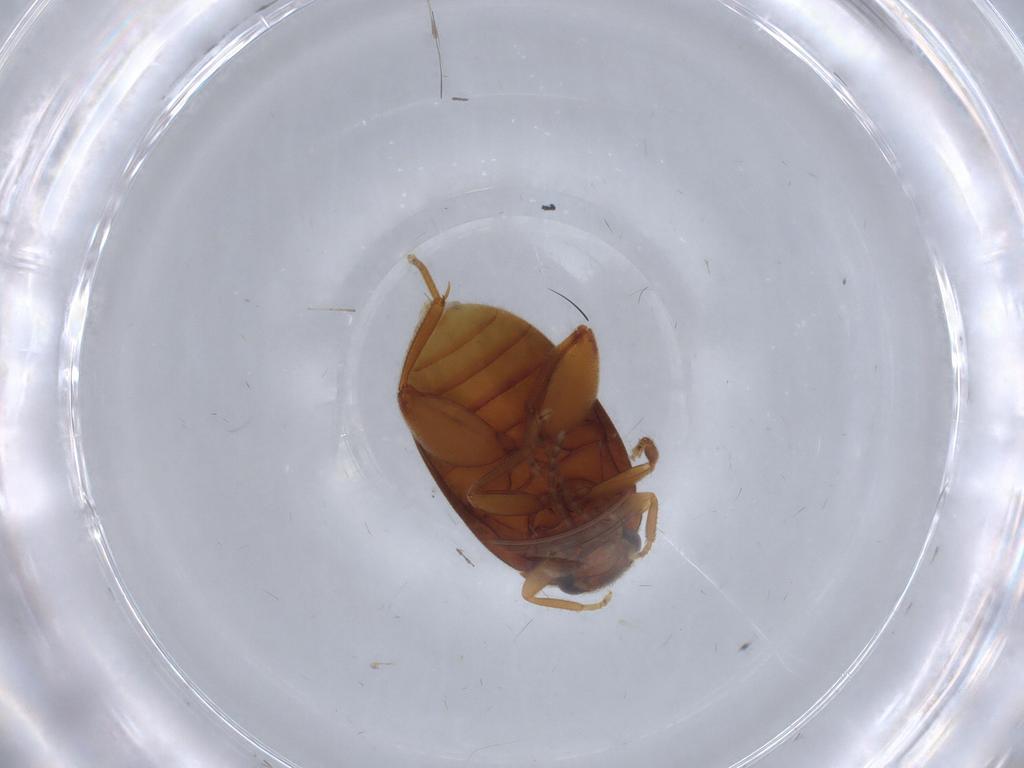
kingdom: Animalia
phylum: Arthropoda
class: Insecta
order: Coleoptera
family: Scirtidae
